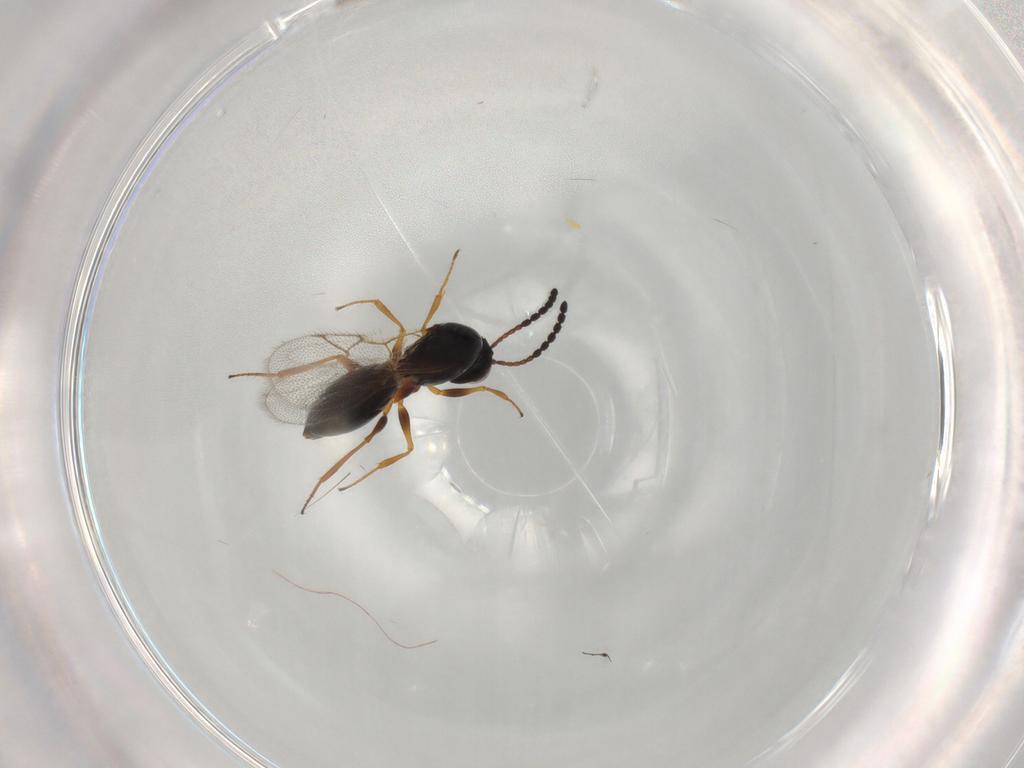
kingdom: Animalia
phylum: Arthropoda
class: Insecta
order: Hymenoptera
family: Figitidae
